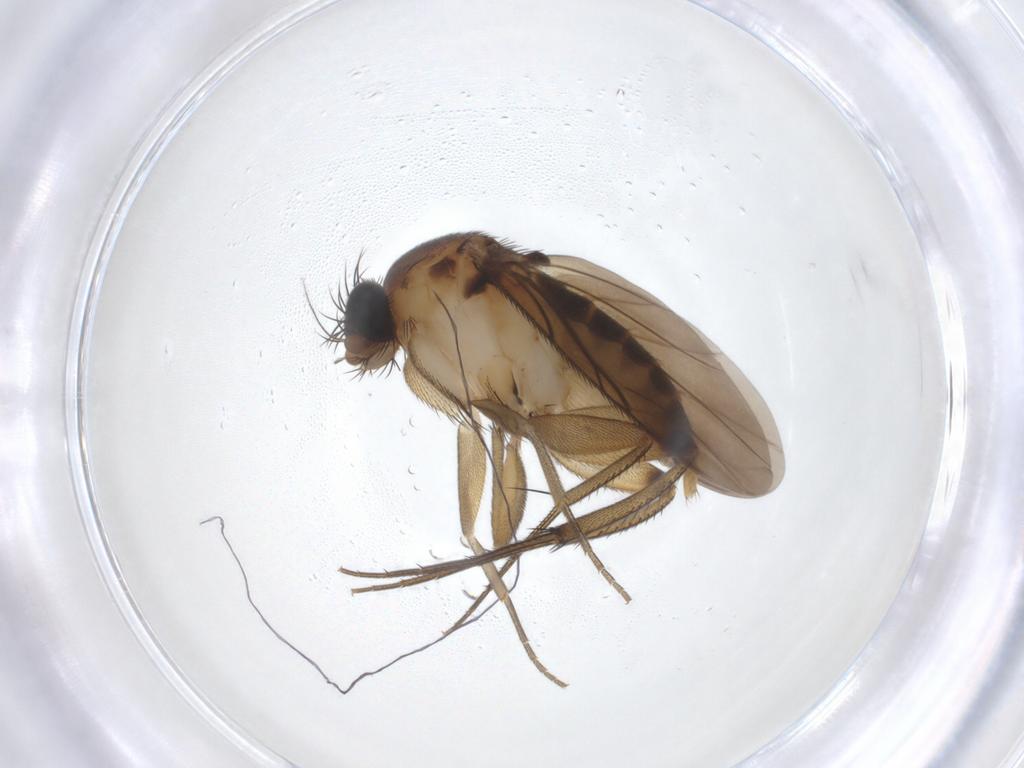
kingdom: Animalia
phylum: Arthropoda
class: Insecta
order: Diptera
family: Phoridae
